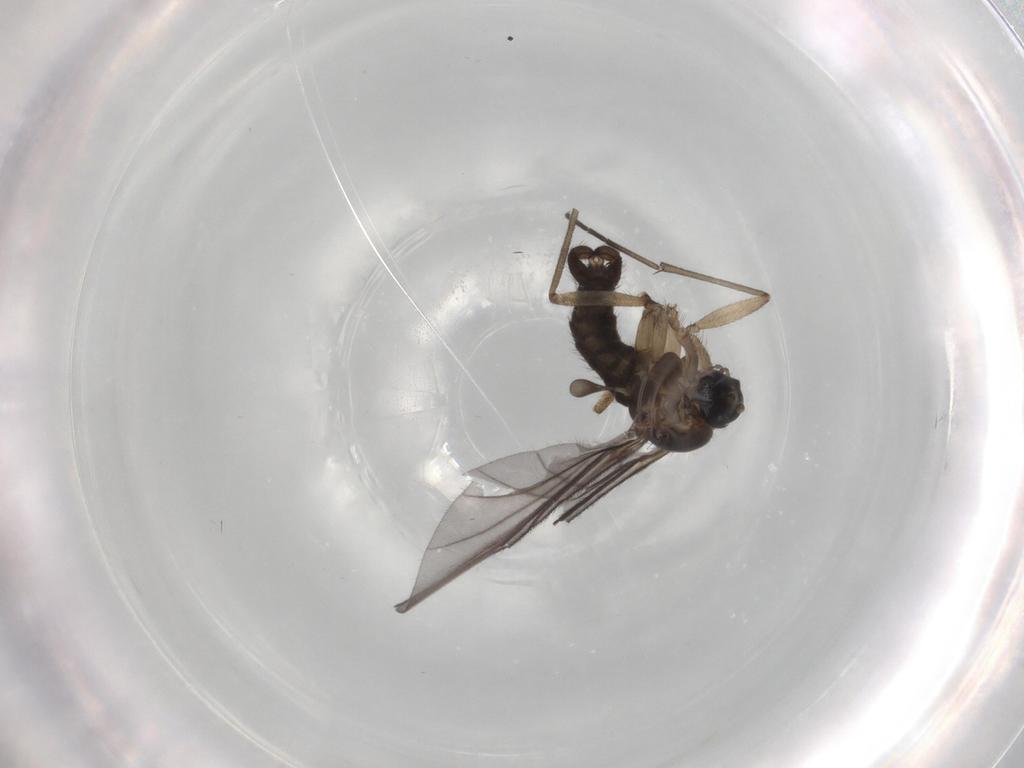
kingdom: Animalia
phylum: Arthropoda
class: Insecta
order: Diptera
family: Sciaridae
